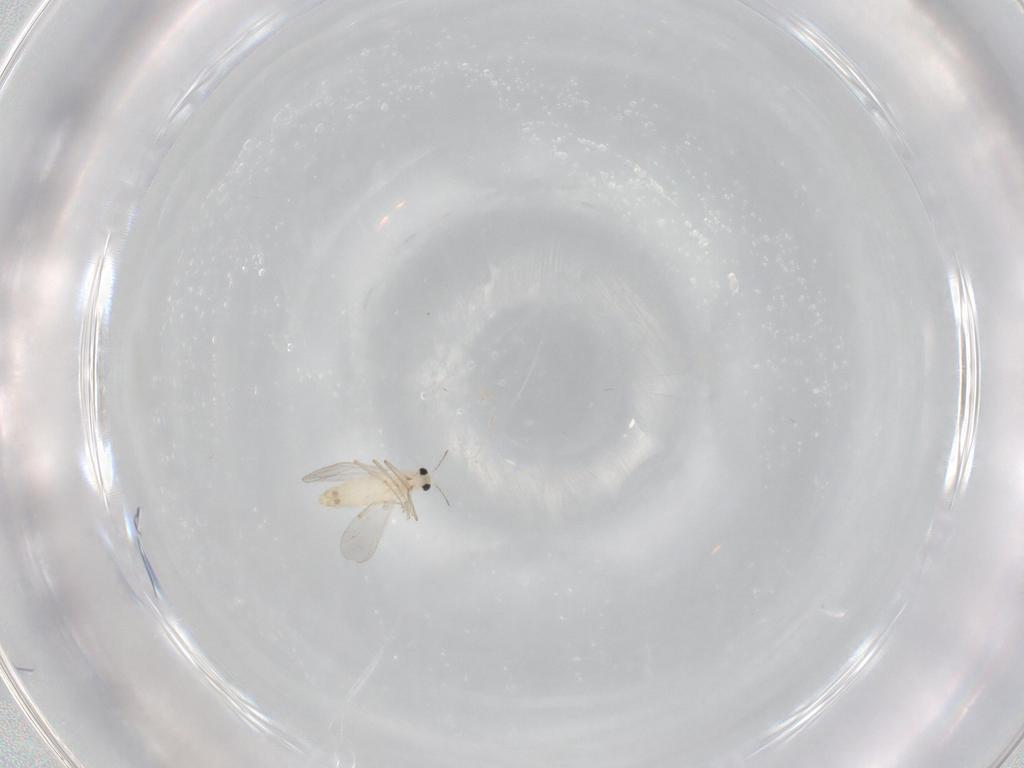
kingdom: Animalia
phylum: Arthropoda
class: Insecta
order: Diptera
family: Chironomidae
